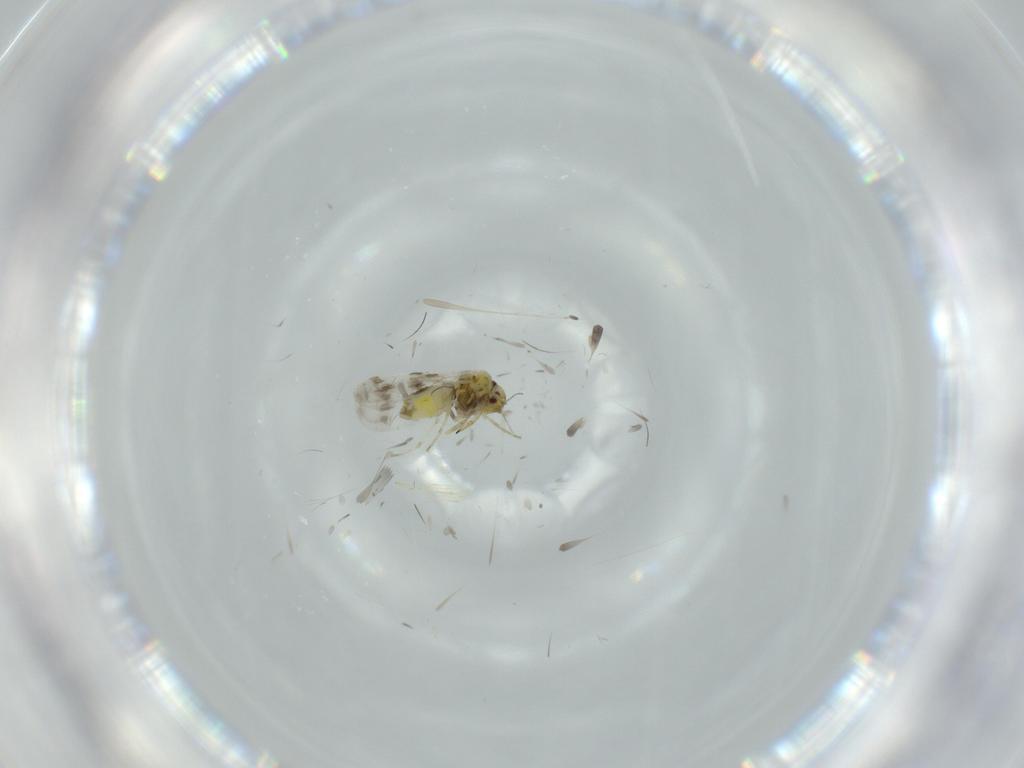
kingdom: Animalia
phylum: Arthropoda
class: Insecta
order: Hemiptera
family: Aleyrodidae
